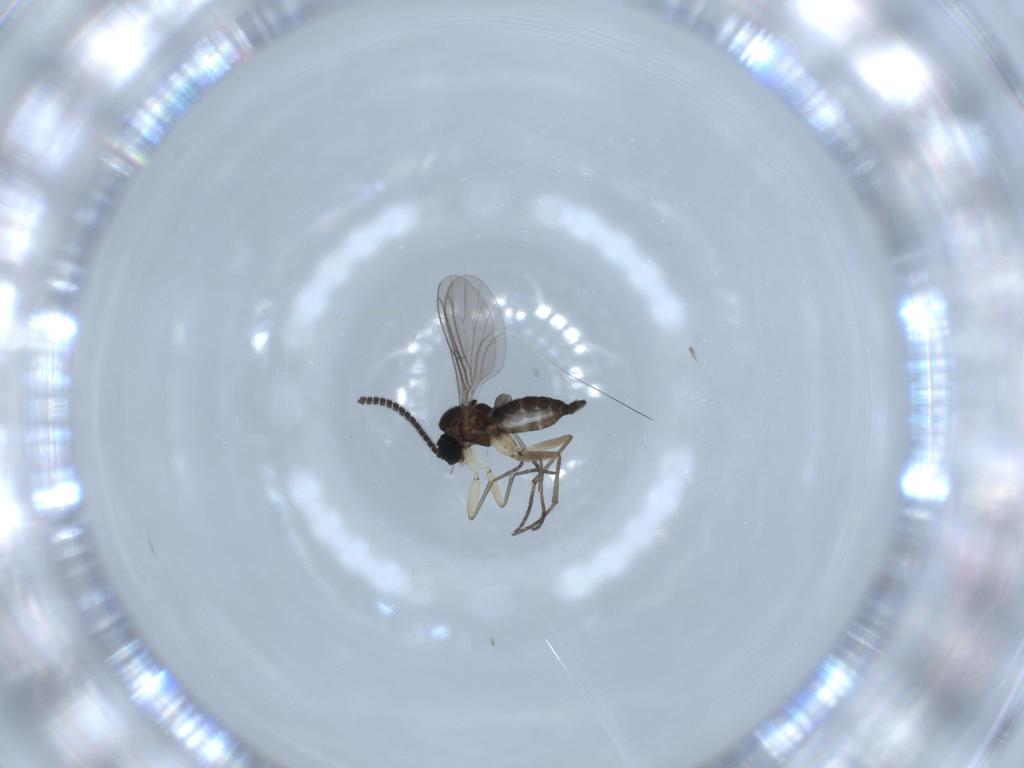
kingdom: Animalia
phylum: Arthropoda
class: Insecta
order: Diptera
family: Sciaridae
